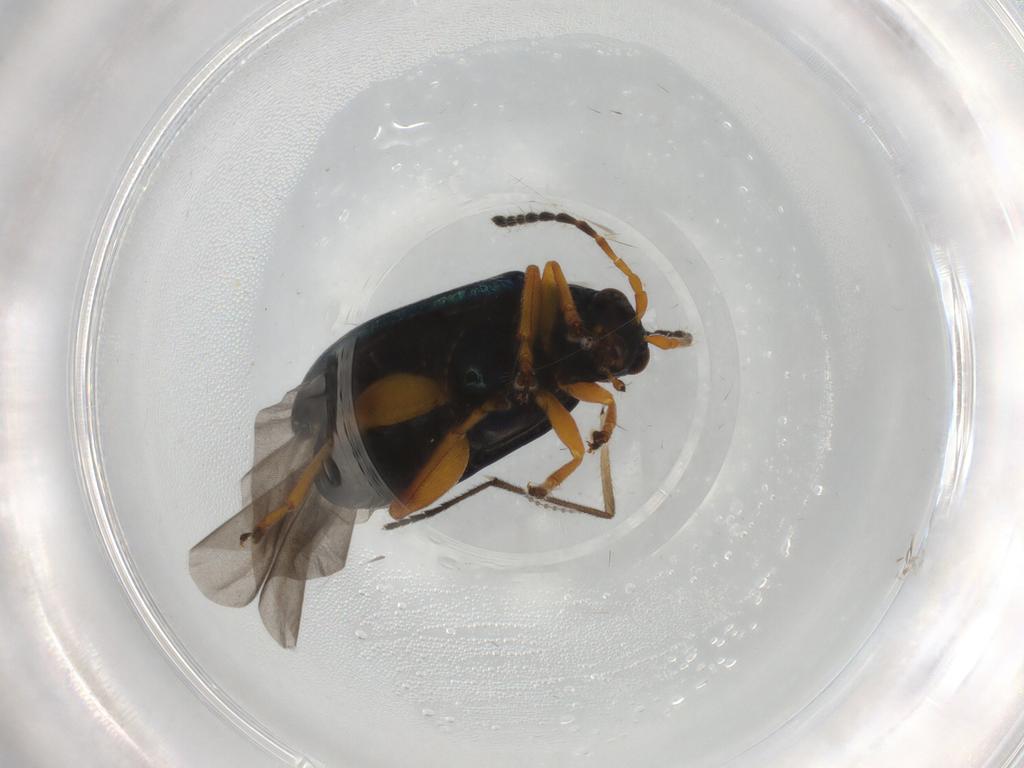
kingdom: Animalia
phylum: Arthropoda
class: Insecta
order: Coleoptera
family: Chrysomelidae
